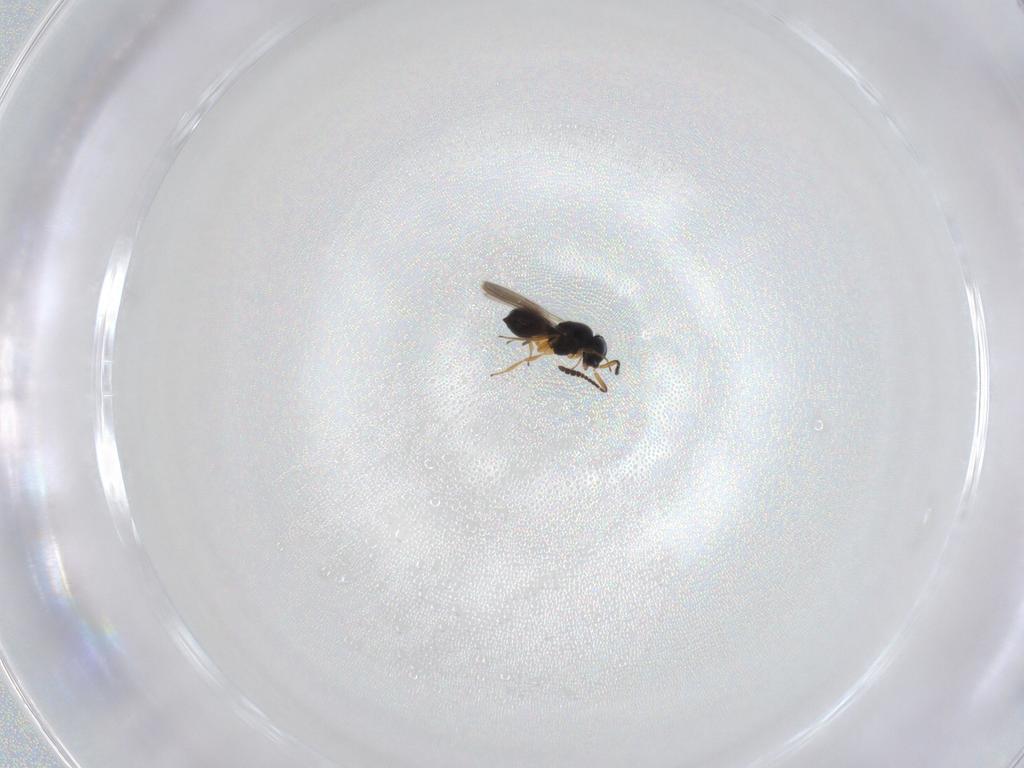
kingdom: Animalia
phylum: Arthropoda
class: Insecta
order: Hymenoptera
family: Scelionidae
